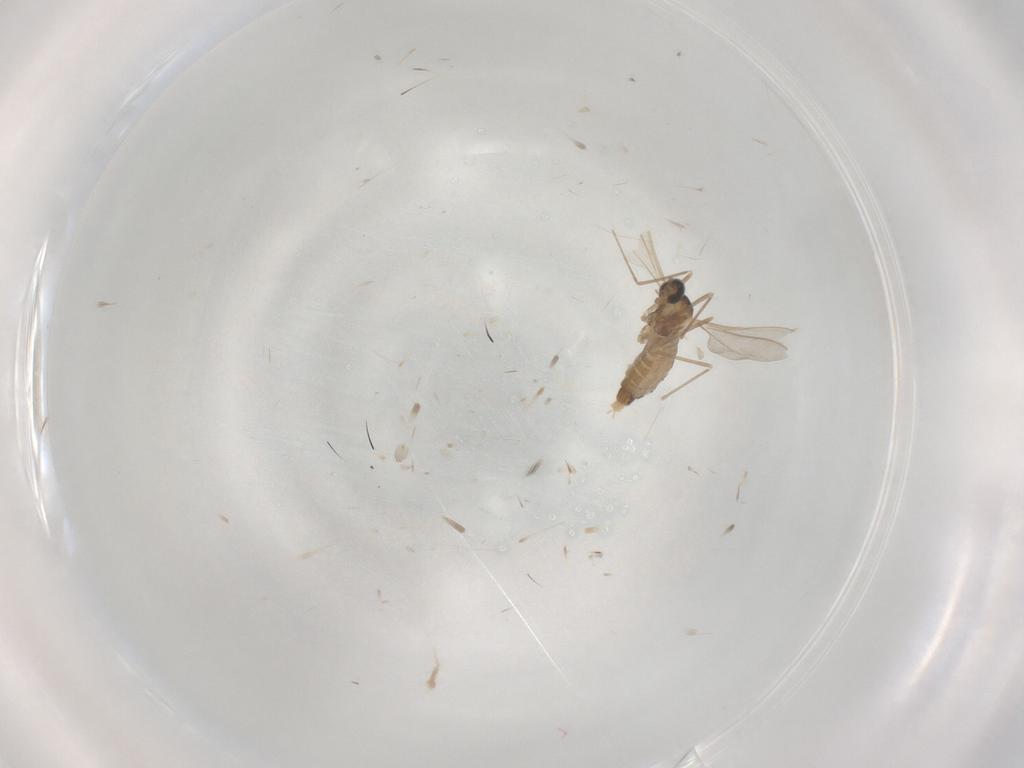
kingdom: Animalia
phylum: Arthropoda
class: Insecta
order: Diptera
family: Cecidomyiidae
